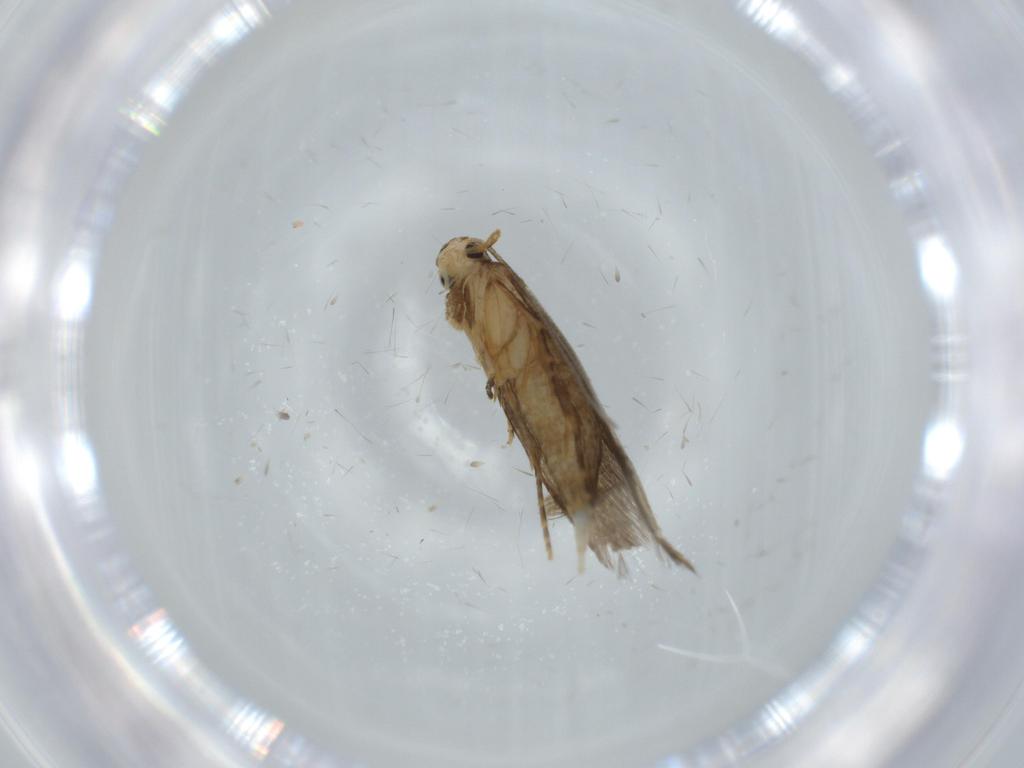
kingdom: Animalia
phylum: Arthropoda
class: Insecta
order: Lepidoptera
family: Tineidae
